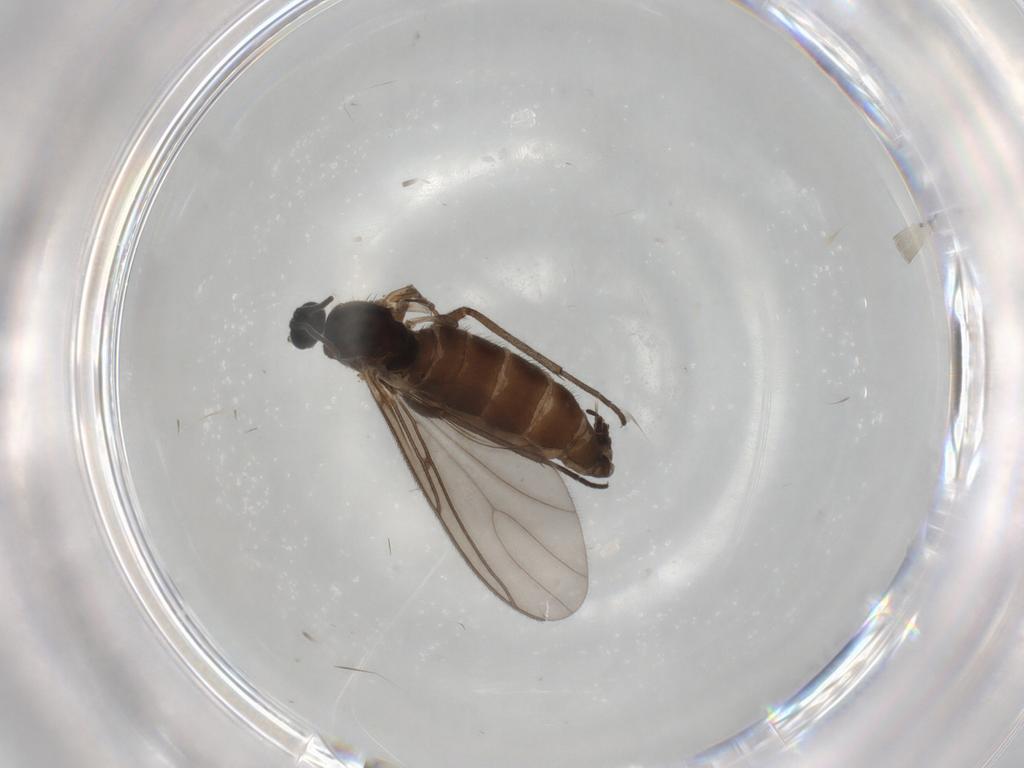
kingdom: Animalia
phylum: Arthropoda
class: Insecta
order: Diptera
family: Sciaridae
